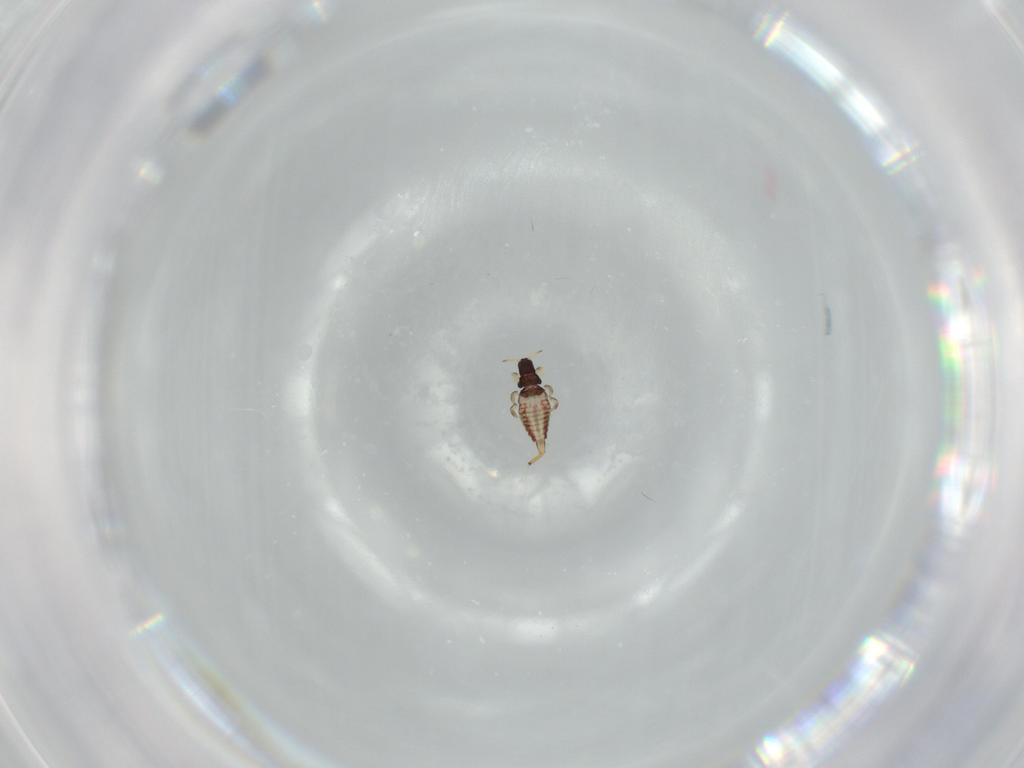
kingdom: Animalia
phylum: Arthropoda
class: Insecta
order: Thysanoptera
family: Phlaeothripidae
